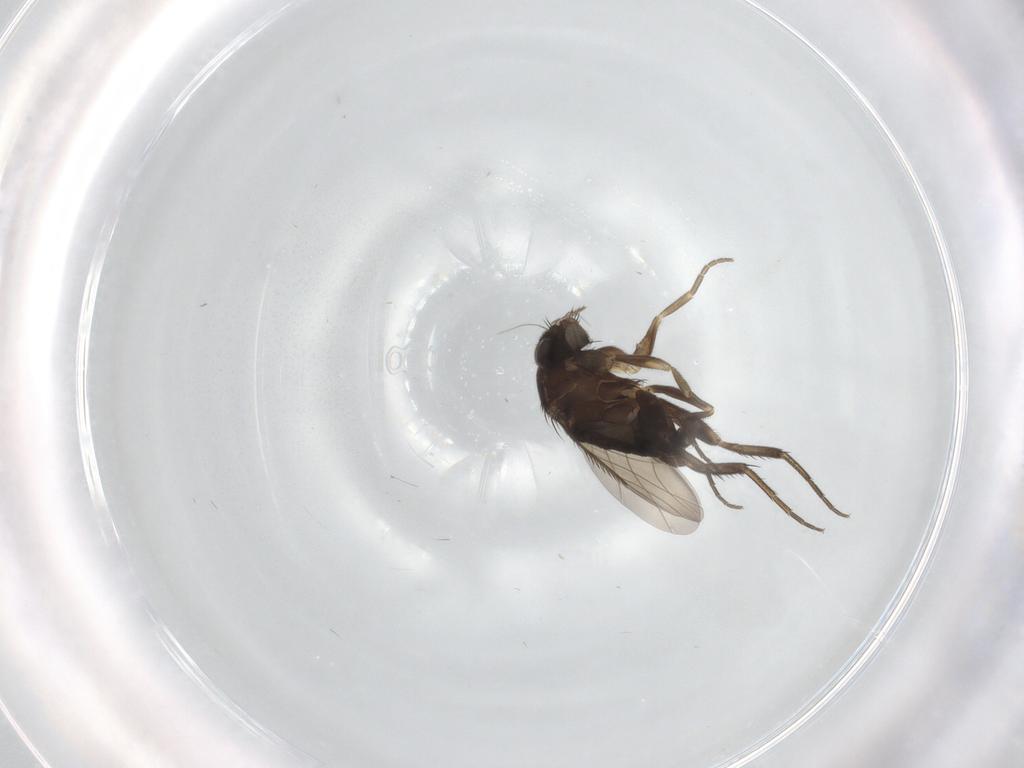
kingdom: Animalia
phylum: Arthropoda
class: Insecta
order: Diptera
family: Phoridae
